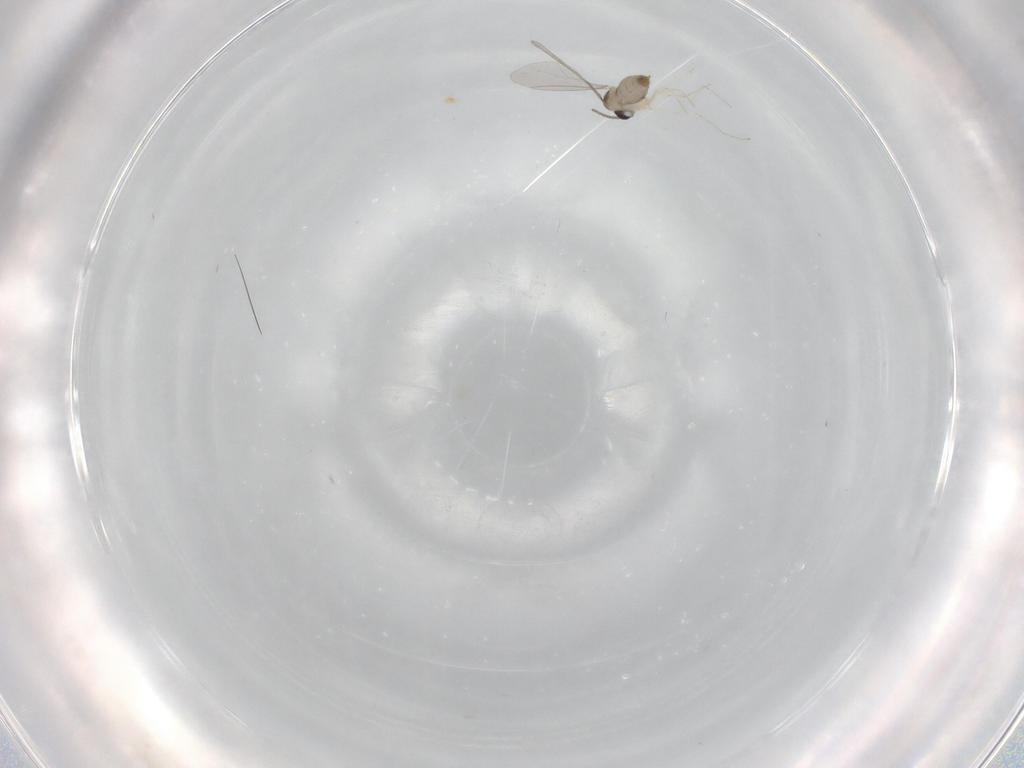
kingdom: Animalia
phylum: Arthropoda
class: Insecta
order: Diptera
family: Cecidomyiidae
